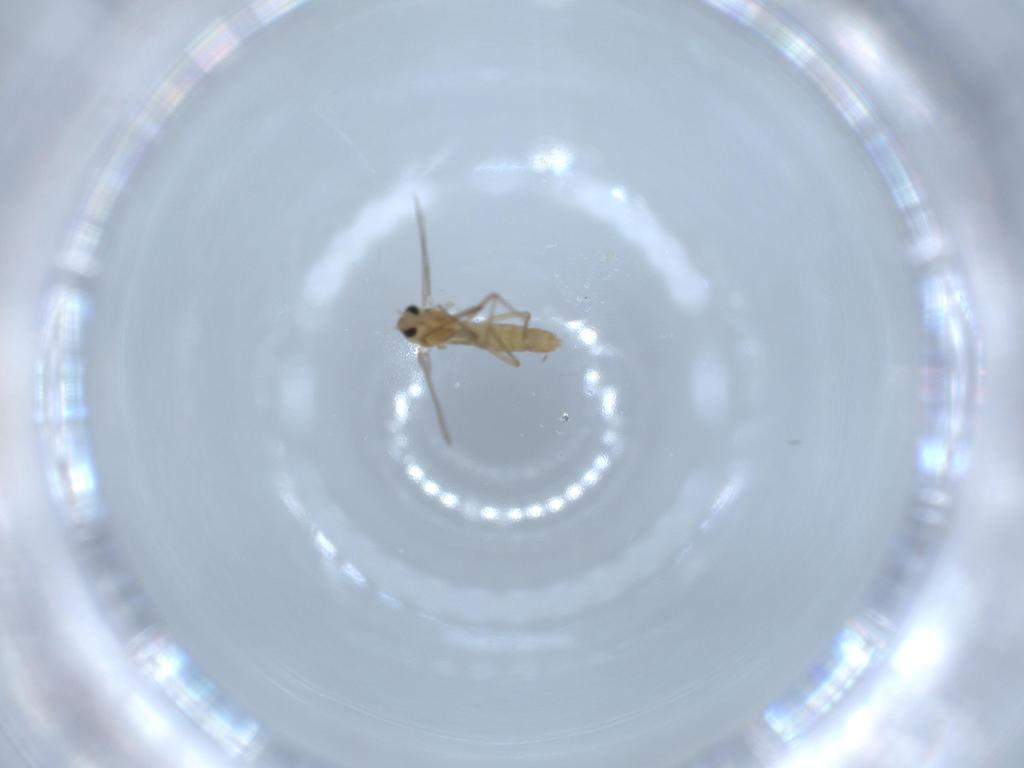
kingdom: Animalia
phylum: Arthropoda
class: Insecta
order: Diptera
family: Chironomidae
